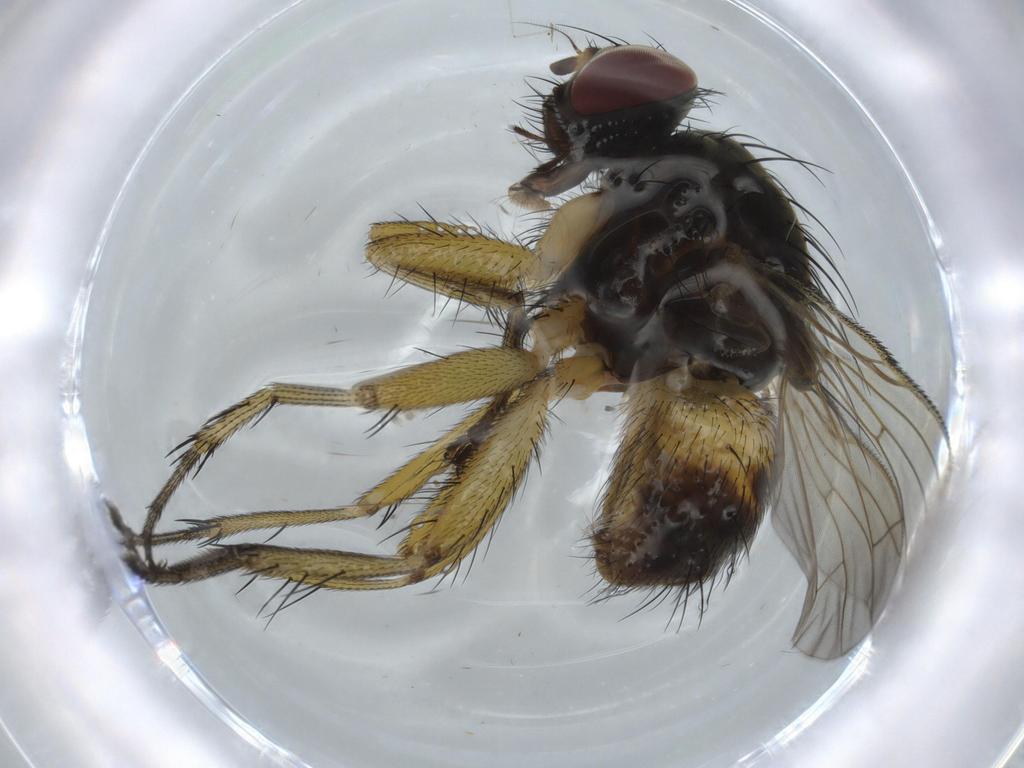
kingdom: Animalia
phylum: Arthropoda
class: Insecta
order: Diptera
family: Muscidae
